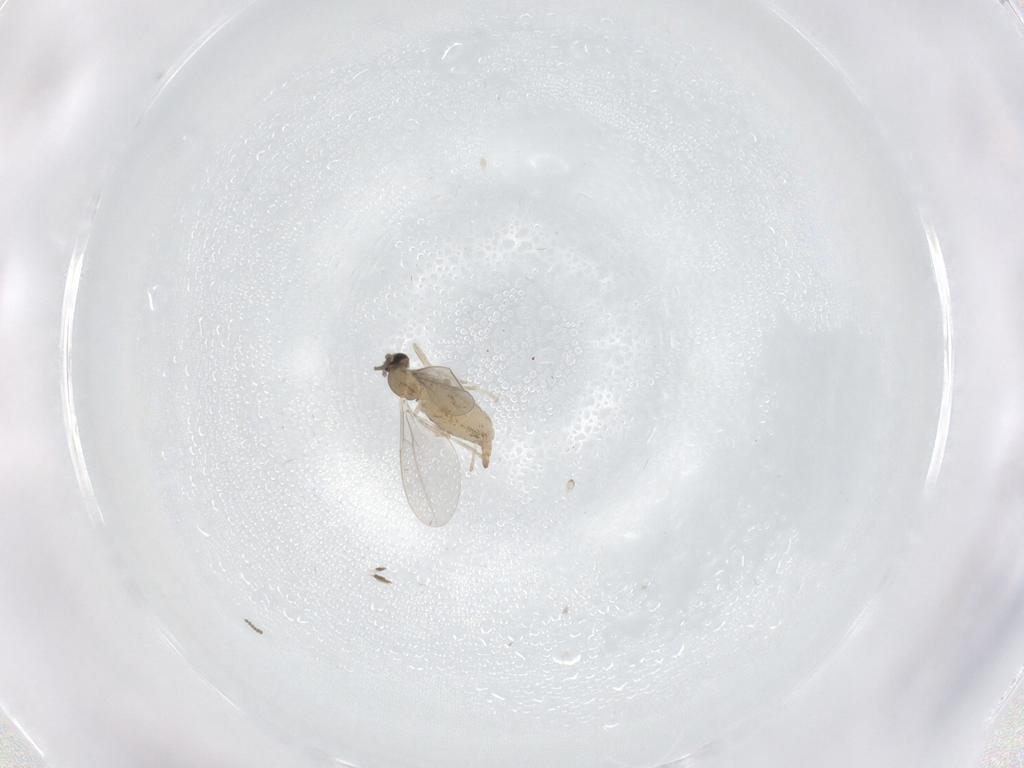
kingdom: Animalia
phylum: Arthropoda
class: Insecta
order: Diptera
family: Cecidomyiidae
